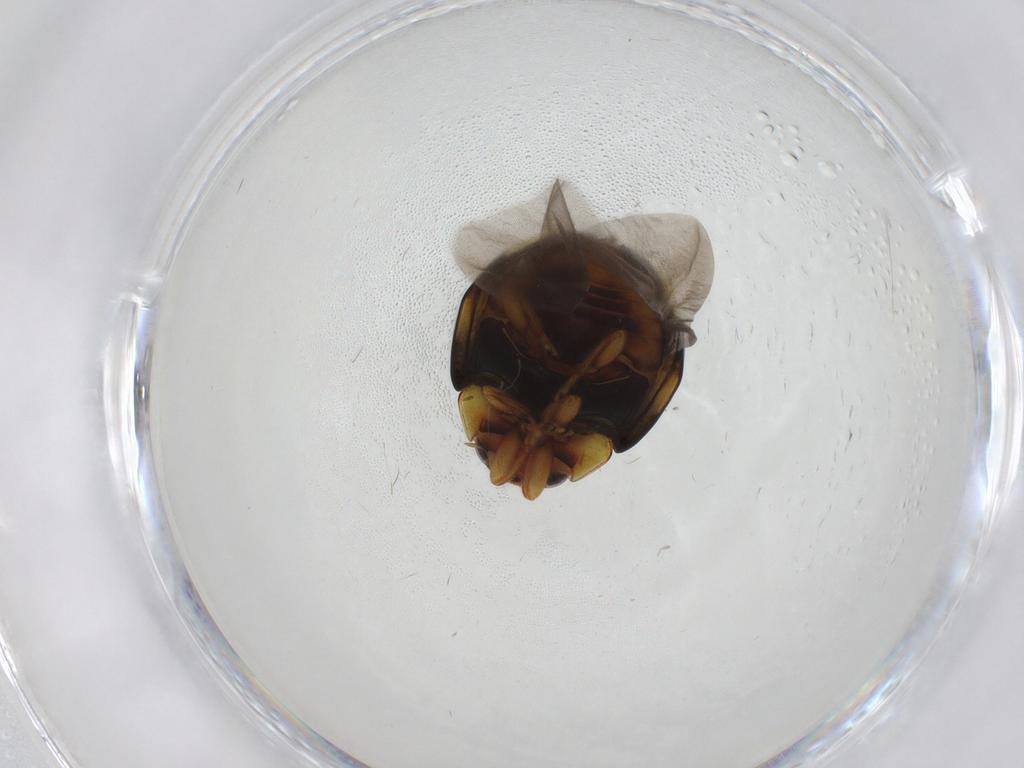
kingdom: Animalia
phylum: Arthropoda
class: Insecta
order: Coleoptera
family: Coccinellidae
